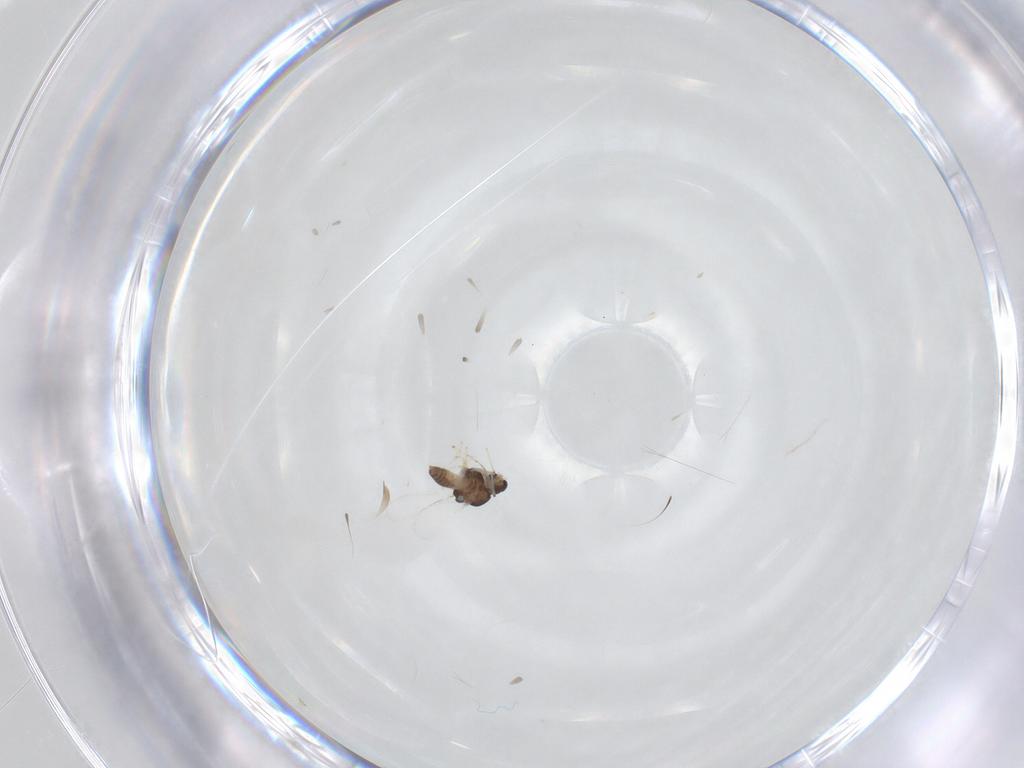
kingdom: Animalia
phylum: Arthropoda
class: Insecta
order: Diptera
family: Chironomidae
